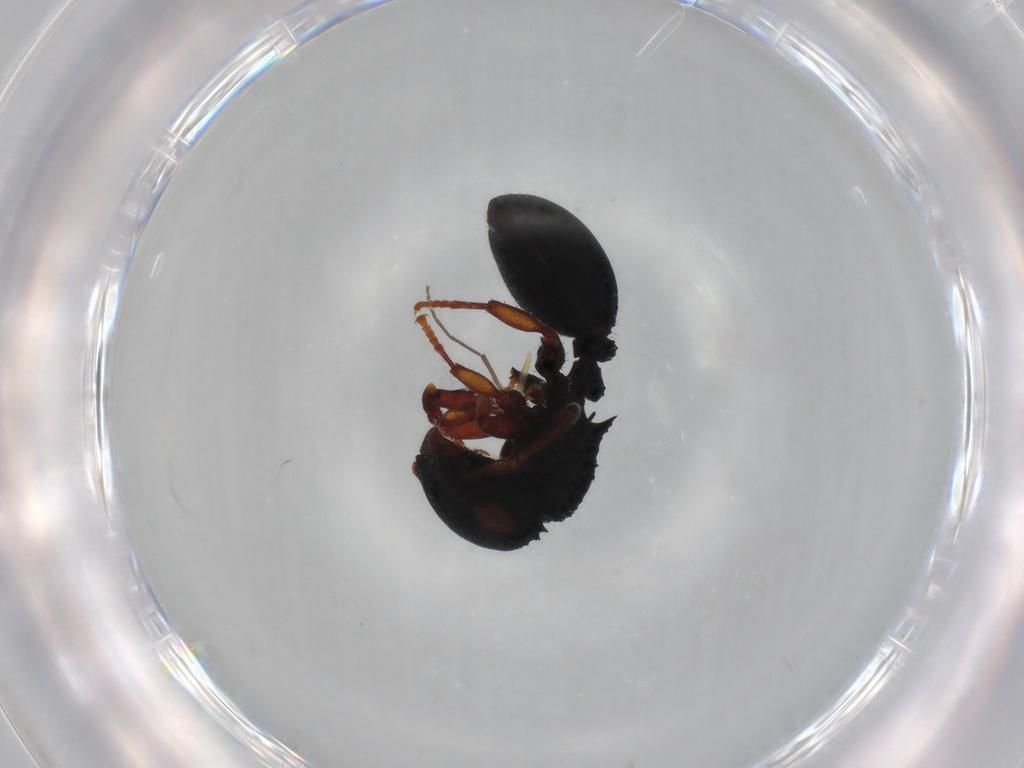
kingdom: Animalia
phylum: Arthropoda
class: Insecta
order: Hymenoptera
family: Formicidae
